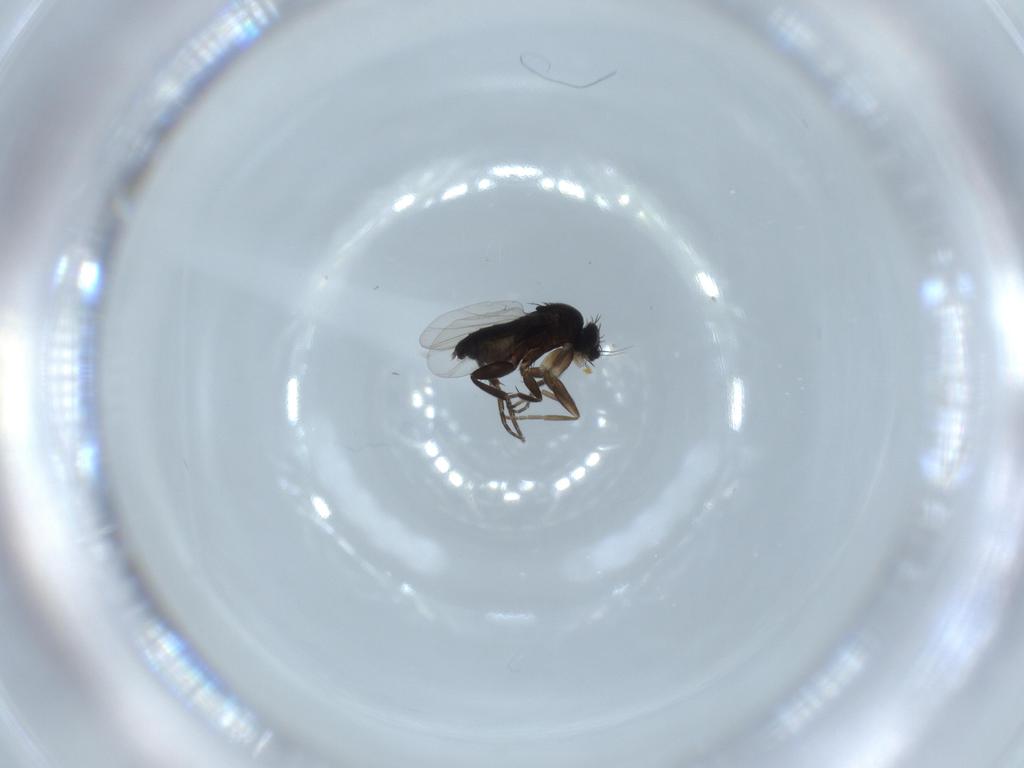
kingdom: Animalia
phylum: Arthropoda
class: Insecta
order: Diptera
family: Phoridae
